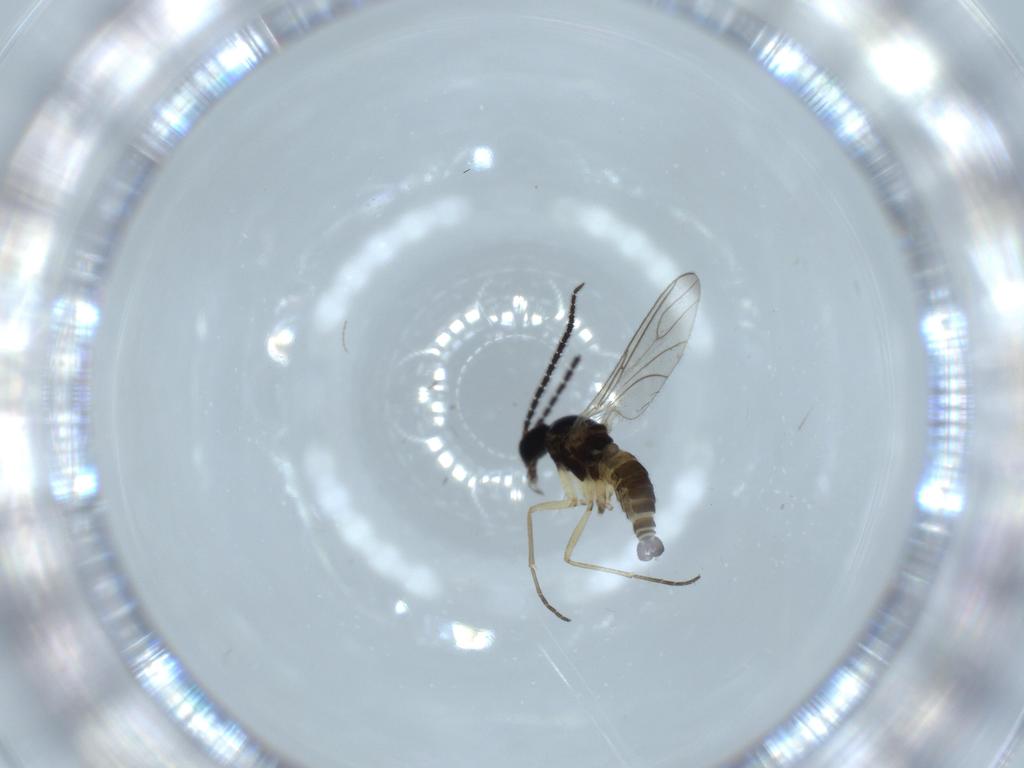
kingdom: Animalia
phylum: Arthropoda
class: Insecta
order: Diptera
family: Sciaridae
